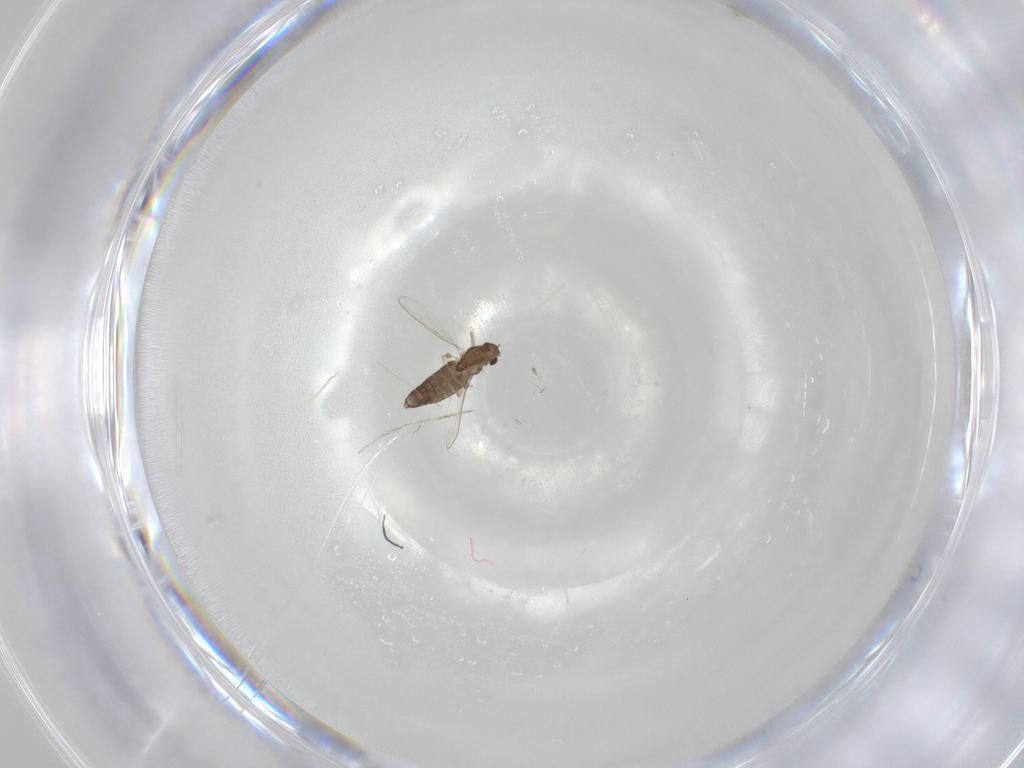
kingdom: Animalia
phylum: Arthropoda
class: Insecta
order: Diptera
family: Chironomidae
